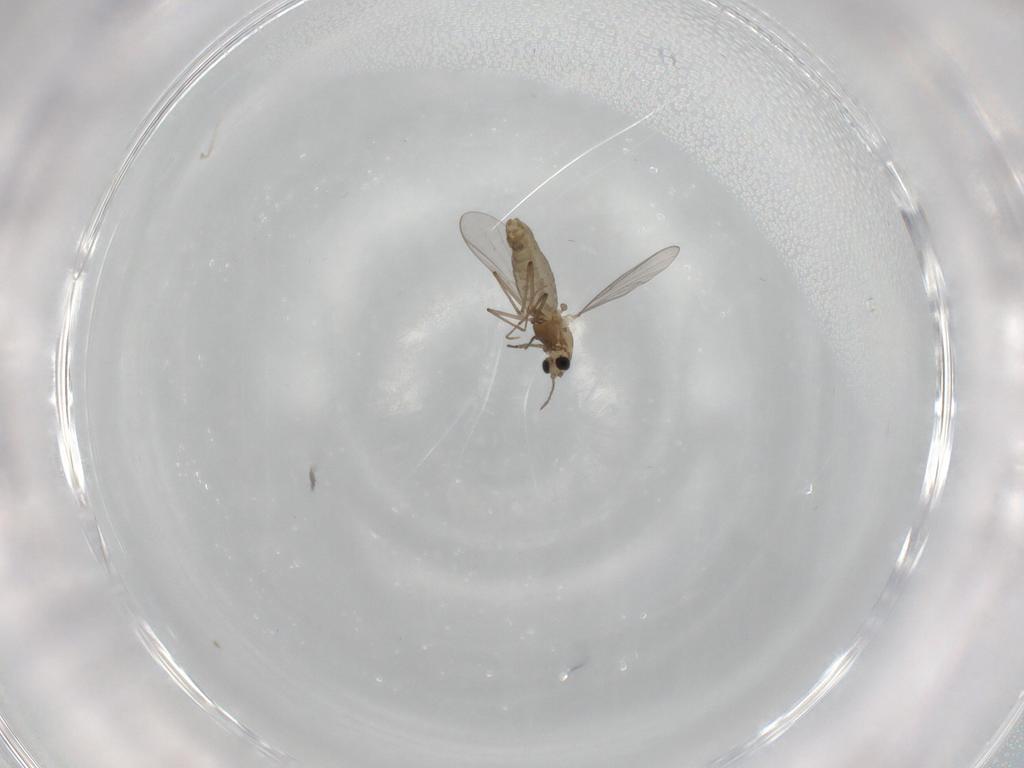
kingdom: Animalia
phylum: Arthropoda
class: Insecta
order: Diptera
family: Chironomidae
